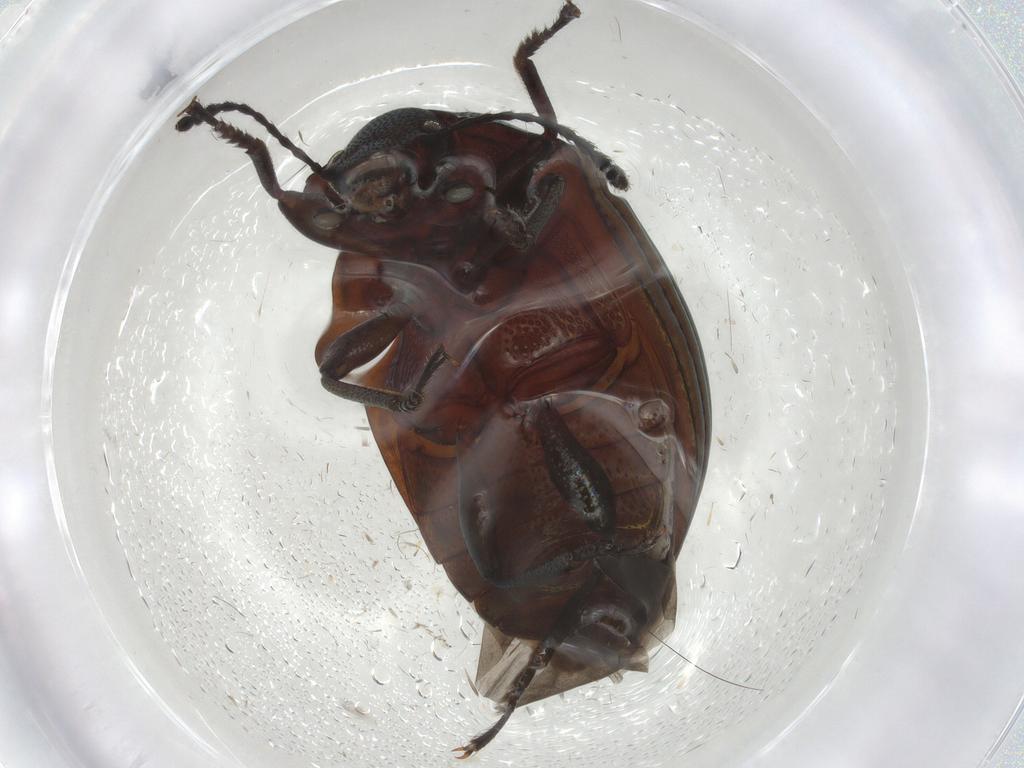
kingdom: Animalia
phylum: Arthropoda
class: Insecta
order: Coleoptera
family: Tenebrionidae
